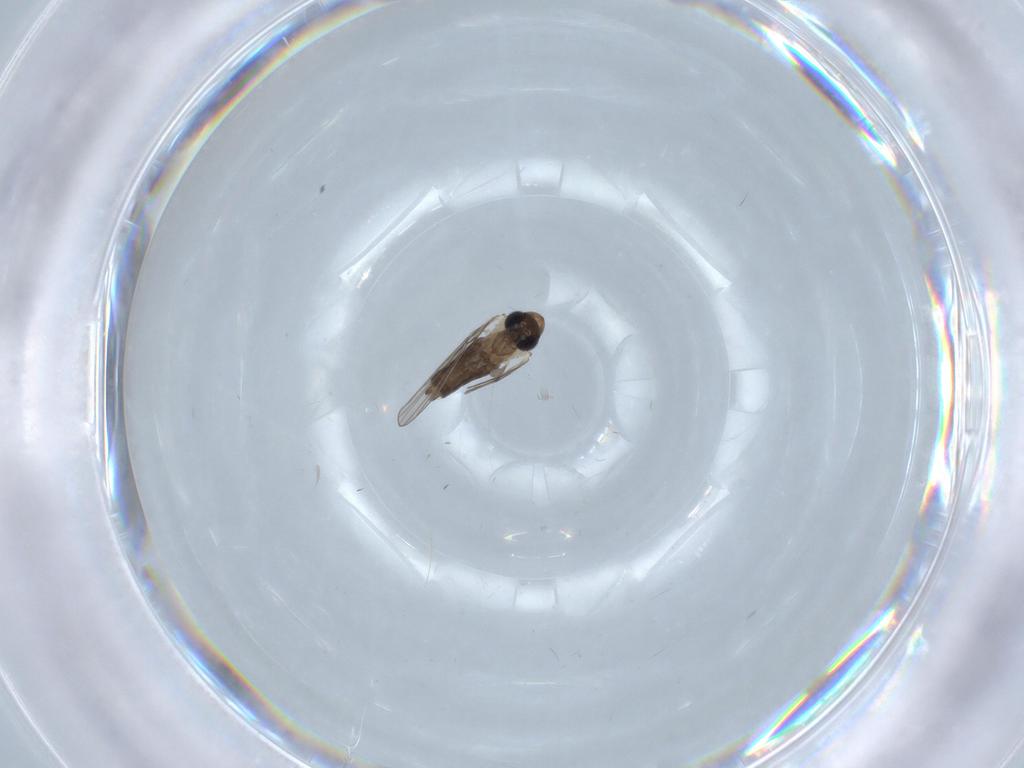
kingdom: Animalia
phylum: Arthropoda
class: Insecta
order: Diptera
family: Psychodidae
